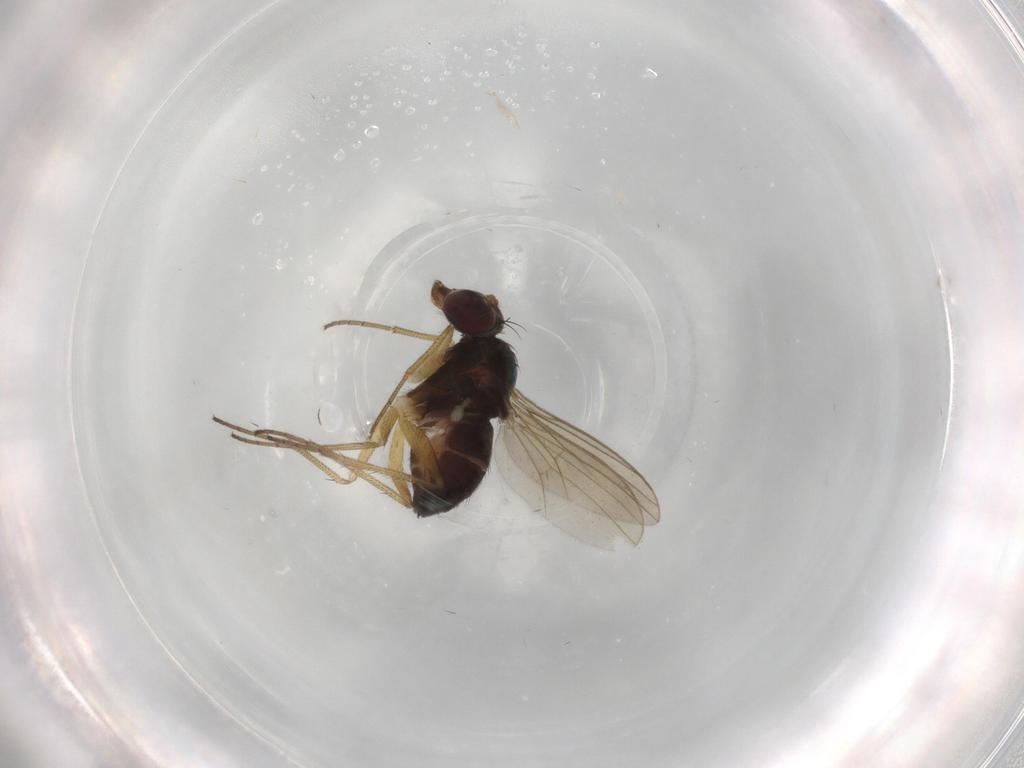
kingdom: Animalia
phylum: Arthropoda
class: Insecta
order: Diptera
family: Dolichopodidae
